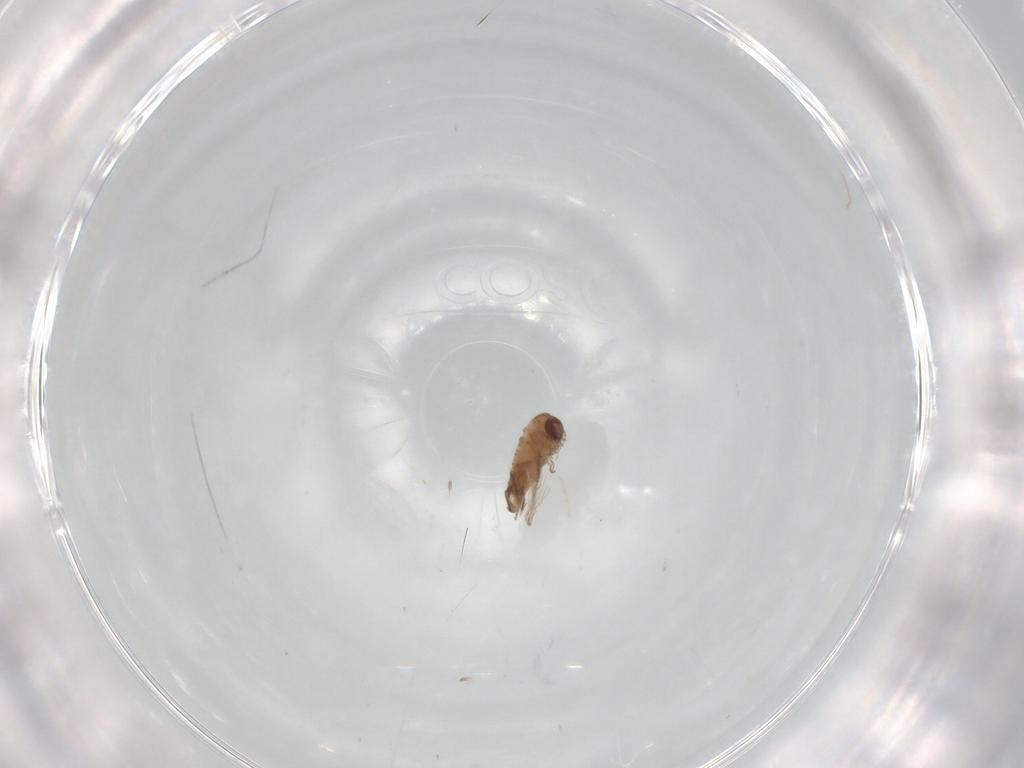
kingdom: Animalia
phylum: Arthropoda
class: Insecta
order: Diptera
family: Psychodidae
